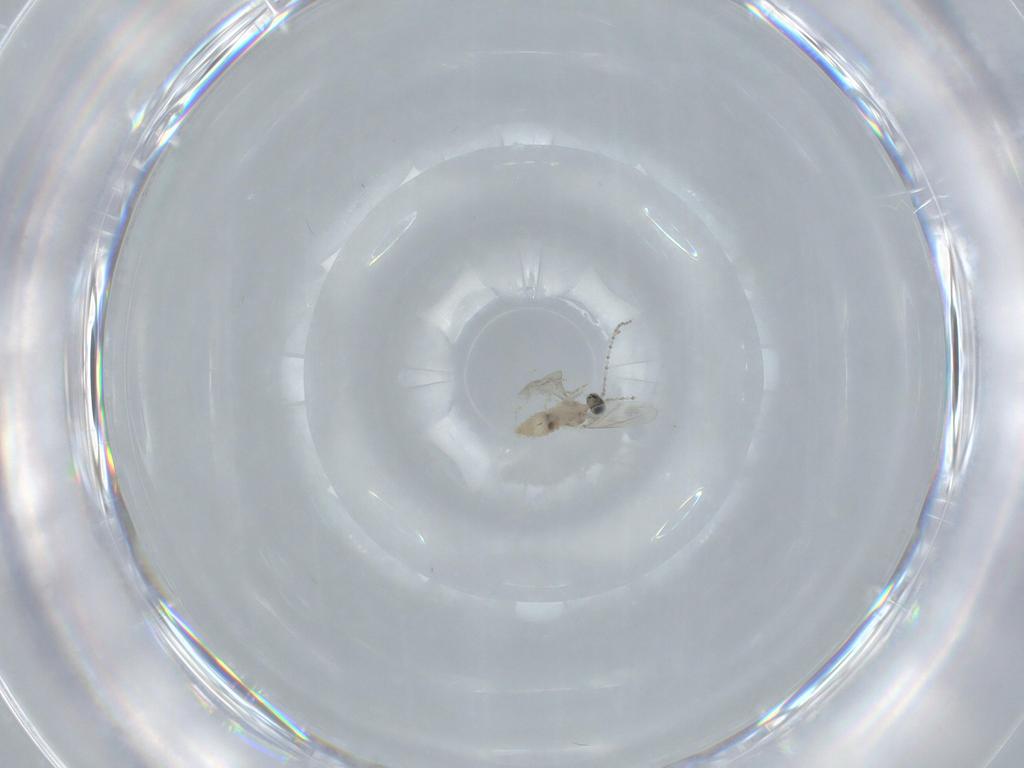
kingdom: Animalia
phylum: Arthropoda
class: Insecta
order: Diptera
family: Cecidomyiidae
